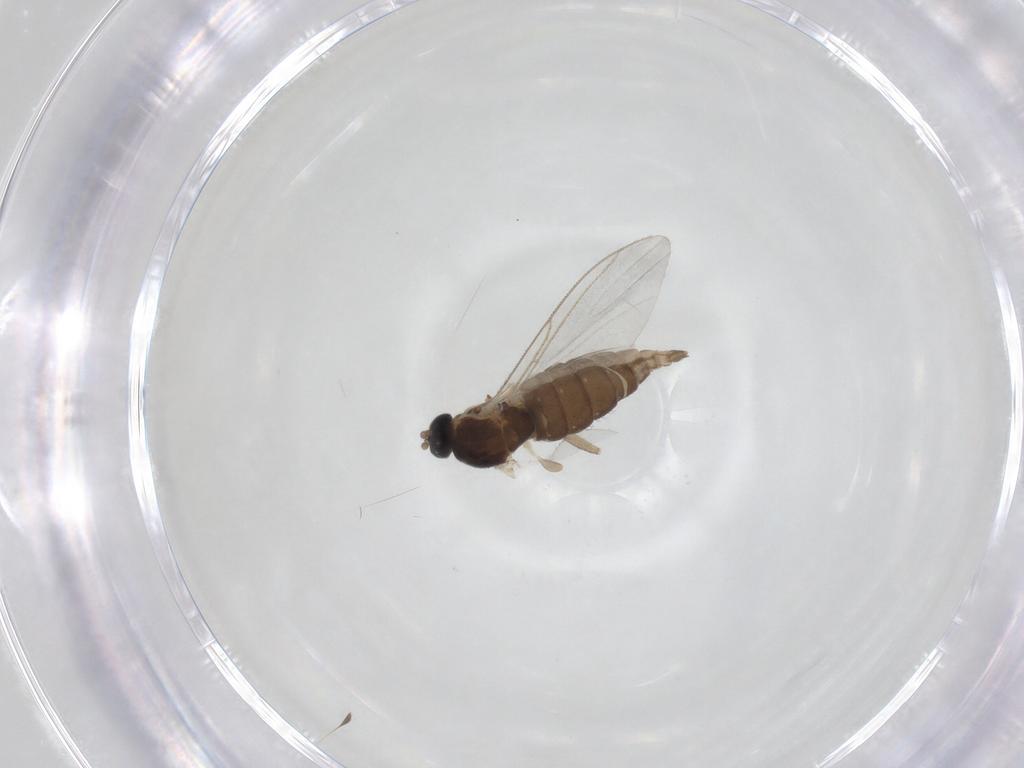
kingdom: Animalia
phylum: Arthropoda
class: Insecta
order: Diptera
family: Sciaridae
